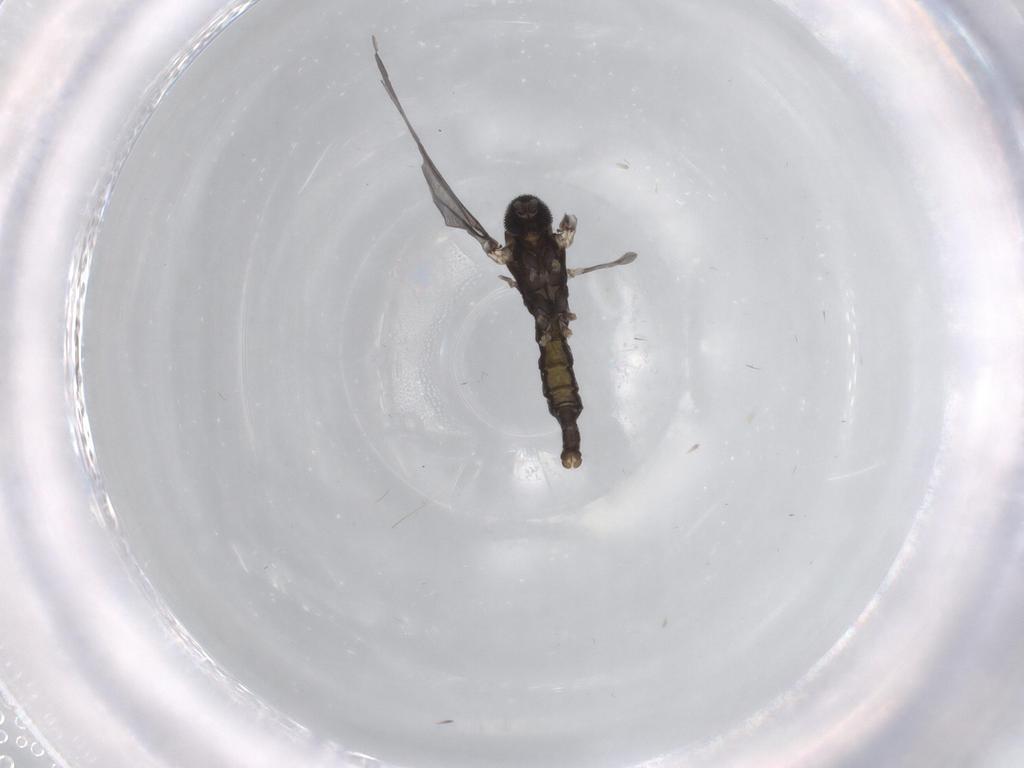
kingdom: Animalia
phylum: Arthropoda
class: Insecta
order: Diptera
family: Cecidomyiidae
